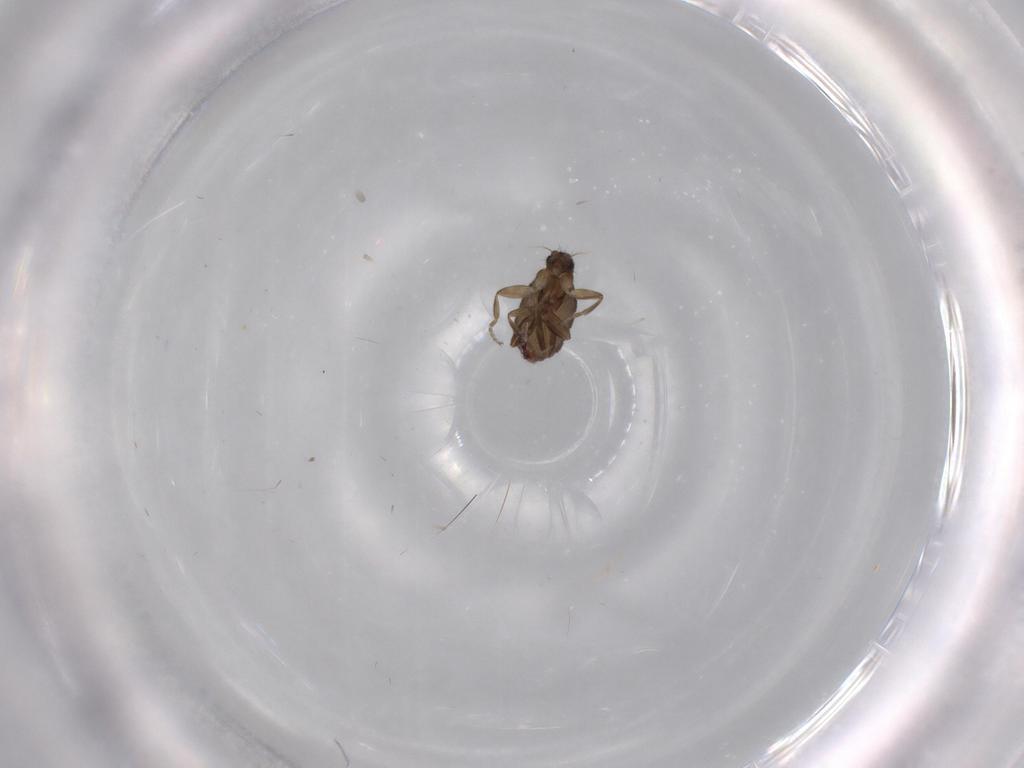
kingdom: Animalia
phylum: Arthropoda
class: Insecta
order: Diptera
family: Phoridae
